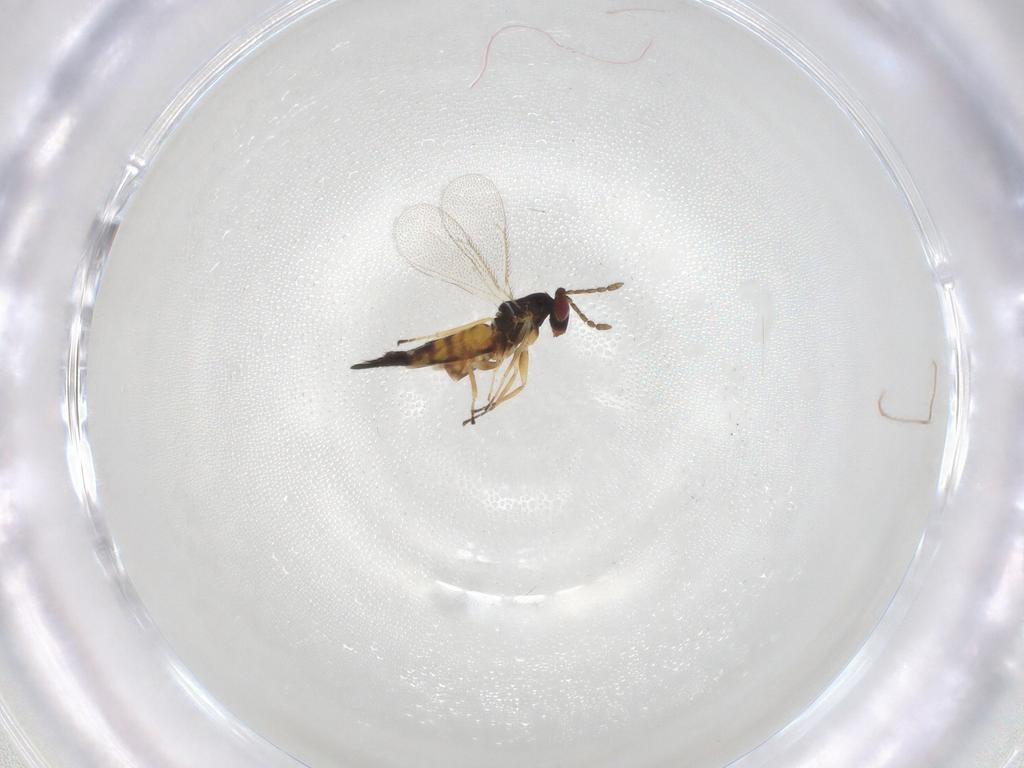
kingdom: Animalia
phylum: Arthropoda
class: Insecta
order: Hymenoptera
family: Eulophidae
